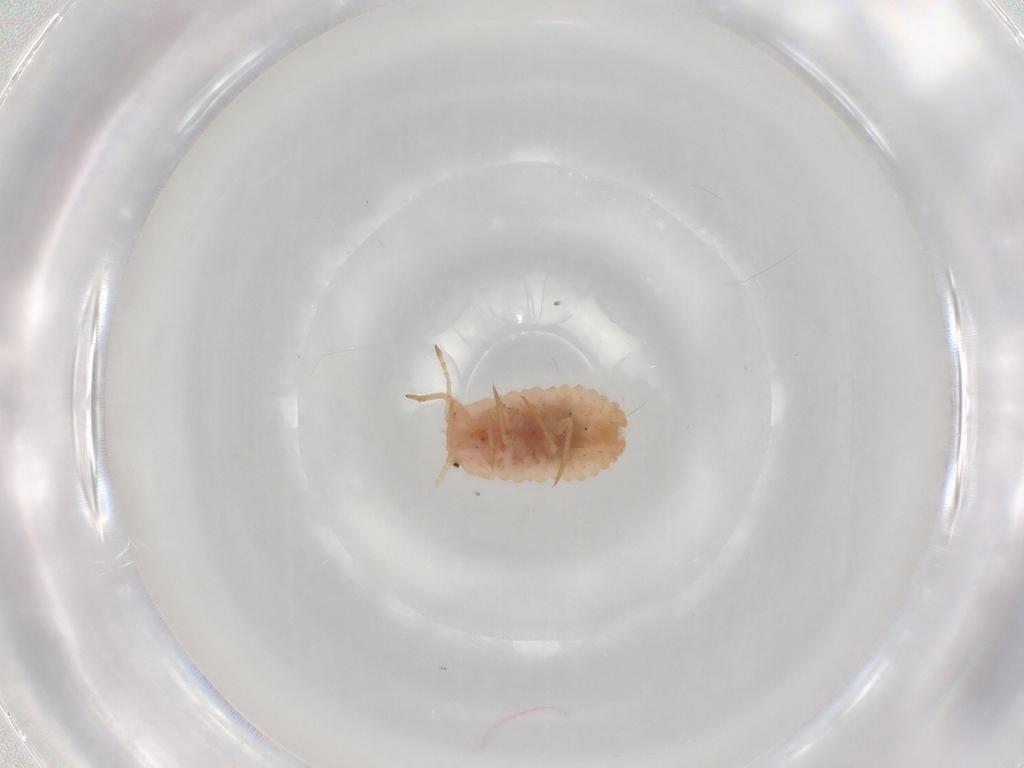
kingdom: Animalia
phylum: Arthropoda
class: Insecta
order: Hemiptera
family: Coccoidea_incertae_sedis
